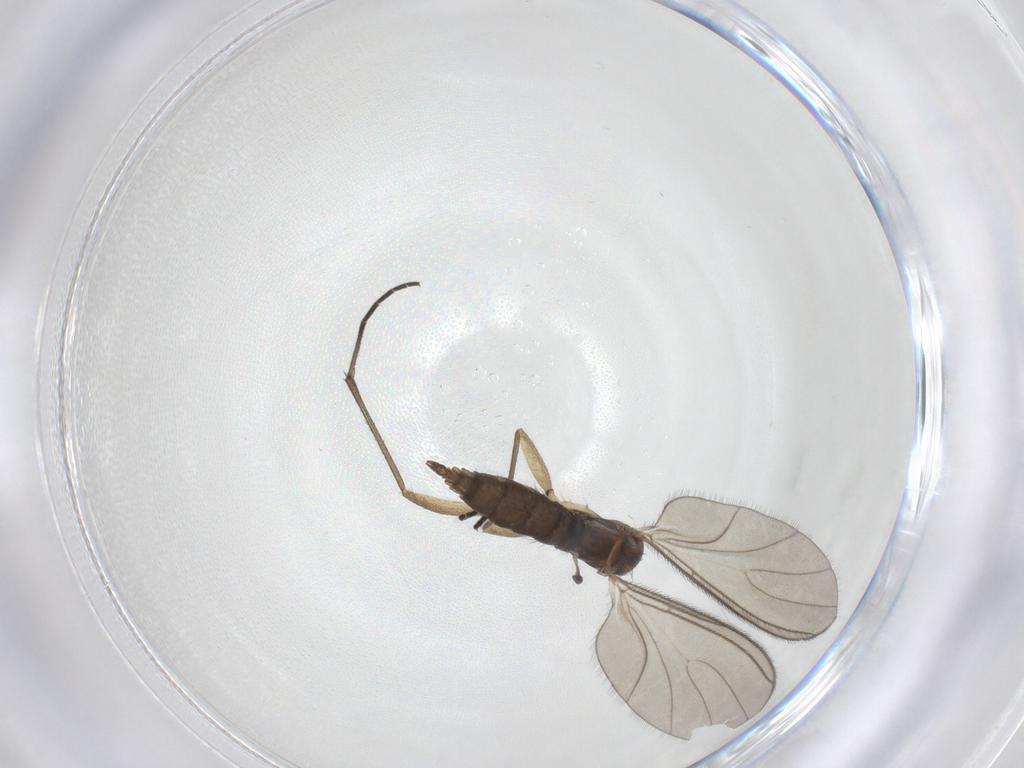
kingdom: Animalia
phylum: Arthropoda
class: Insecta
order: Diptera
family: Sciaridae
